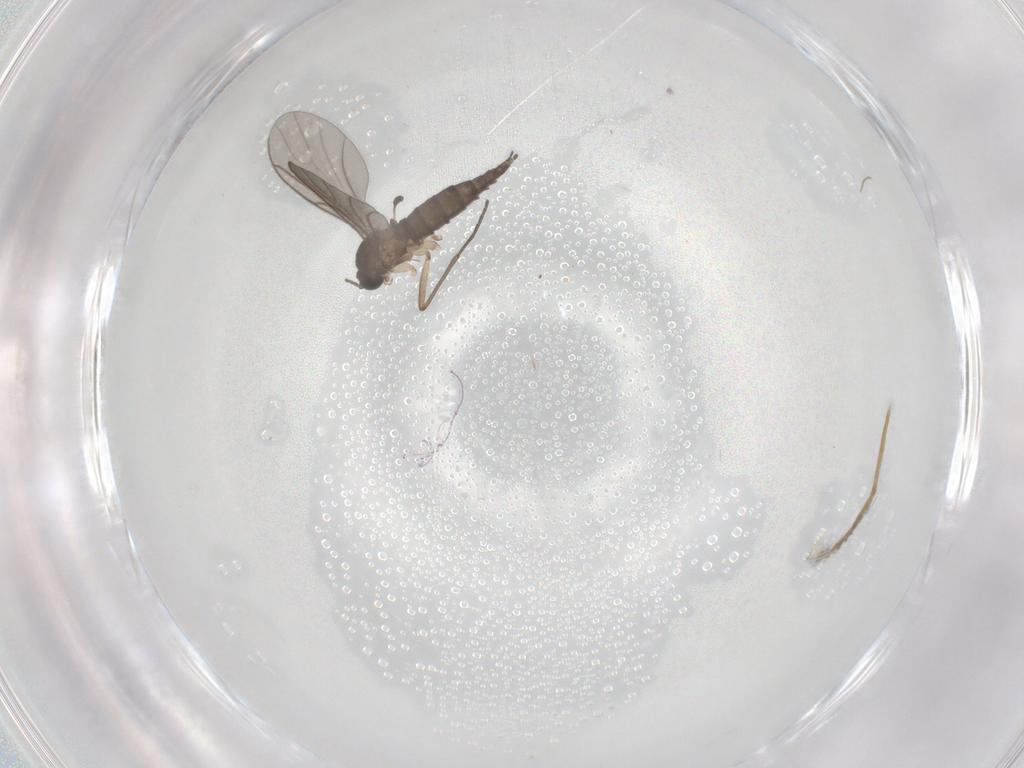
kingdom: Animalia
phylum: Arthropoda
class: Insecta
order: Diptera
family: Sciaridae
